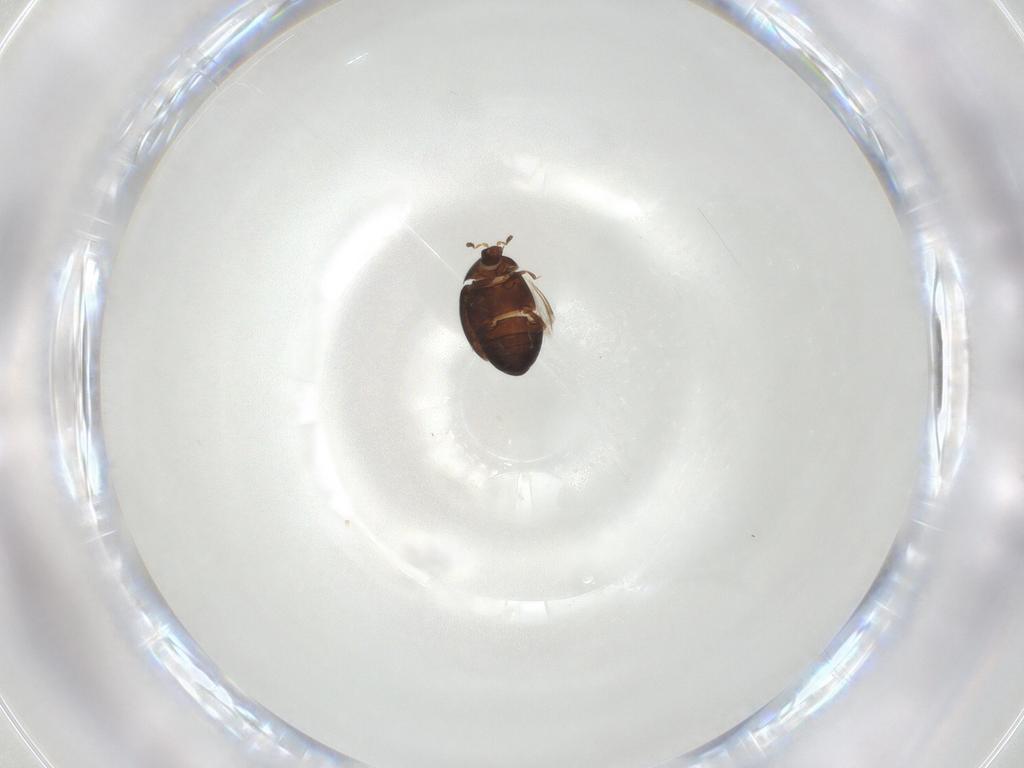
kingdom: Animalia
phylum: Arthropoda
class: Insecta
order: Coleoptera
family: Corylophidae
